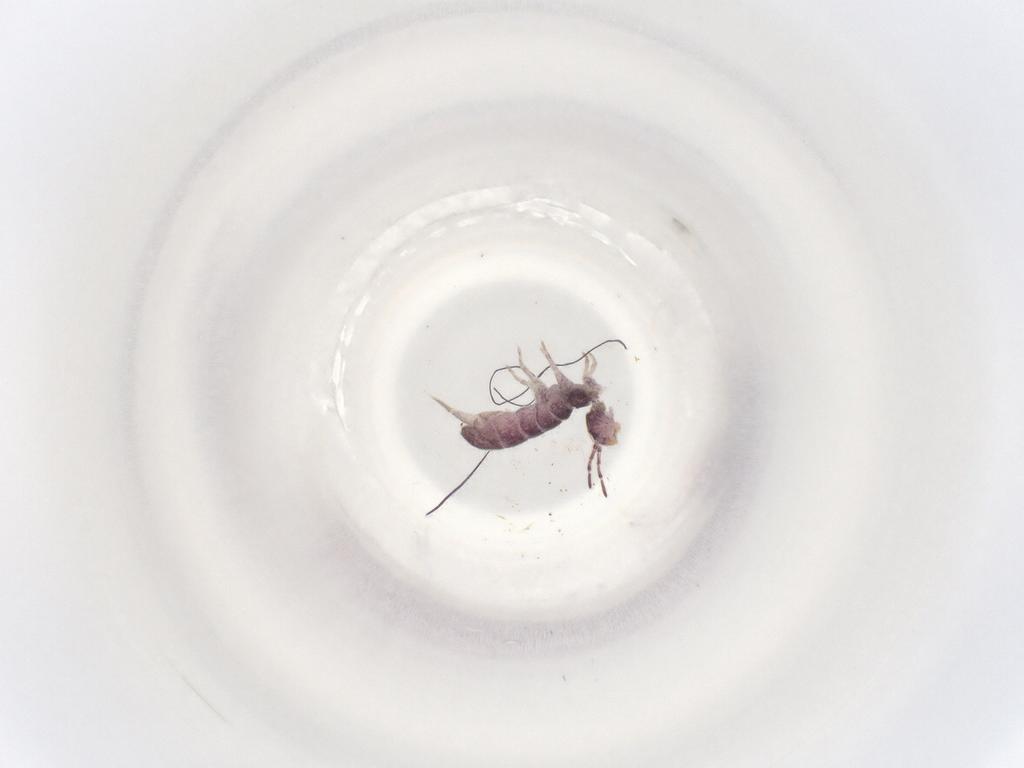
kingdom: Animalia
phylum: Arthropoda
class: Collembola
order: Entomobryomorpha
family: Isotomidae
